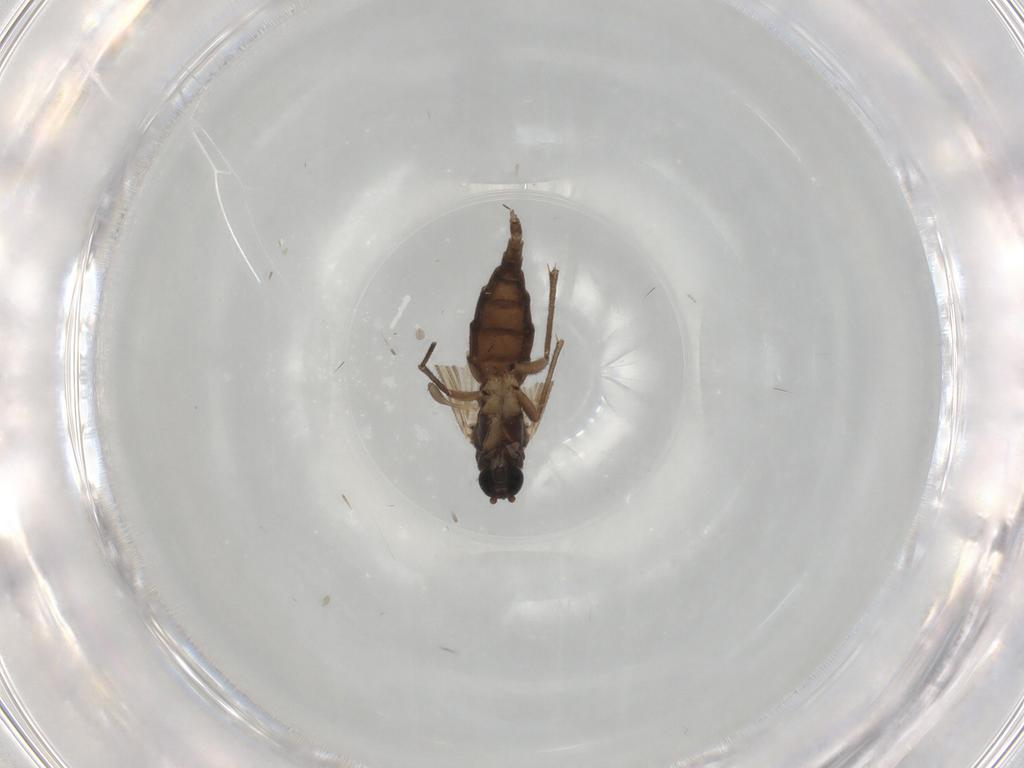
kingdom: Animalia
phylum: Arthropoda
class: Insecta
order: Diptera
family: Sciaridae
